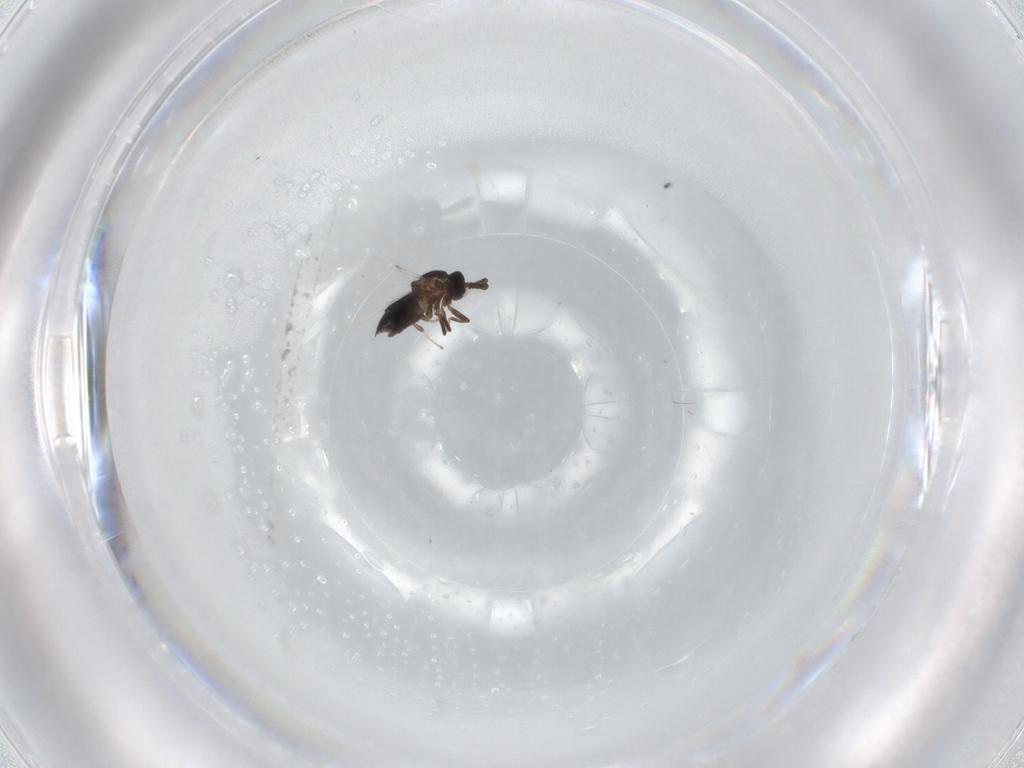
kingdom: Animalia
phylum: Arthropoda
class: Insecta
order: Diptera
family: Scatopsidae
